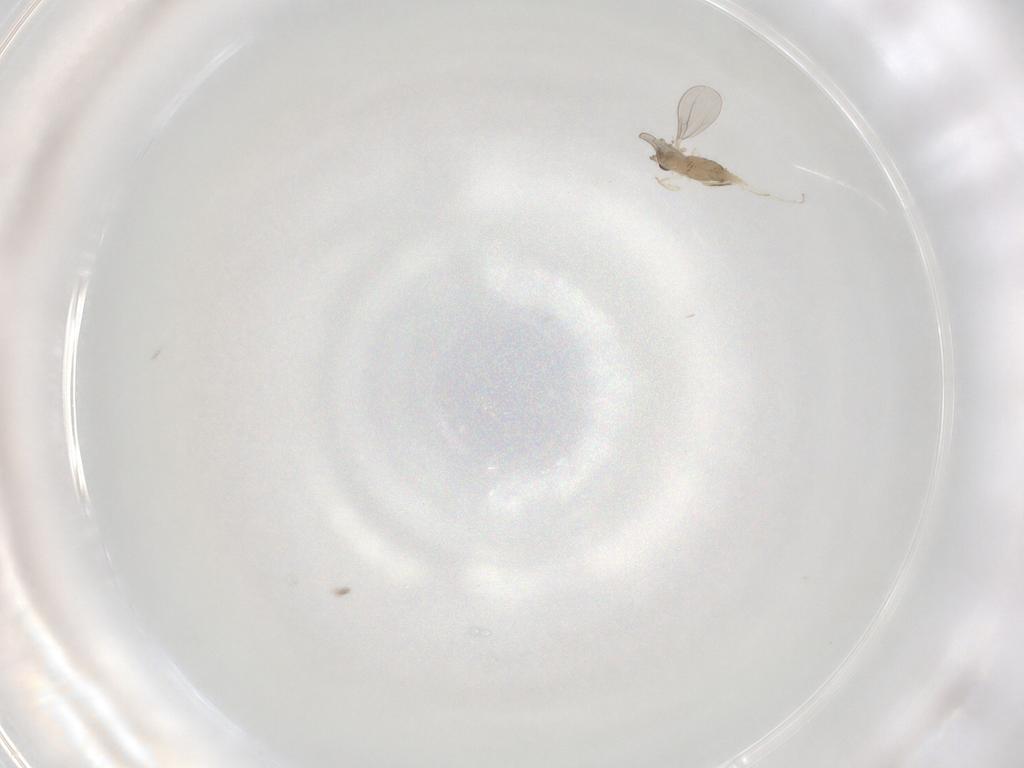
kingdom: Animalia
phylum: Arthropoda
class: Insecta
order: Diptera
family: Cecidomyiidae
